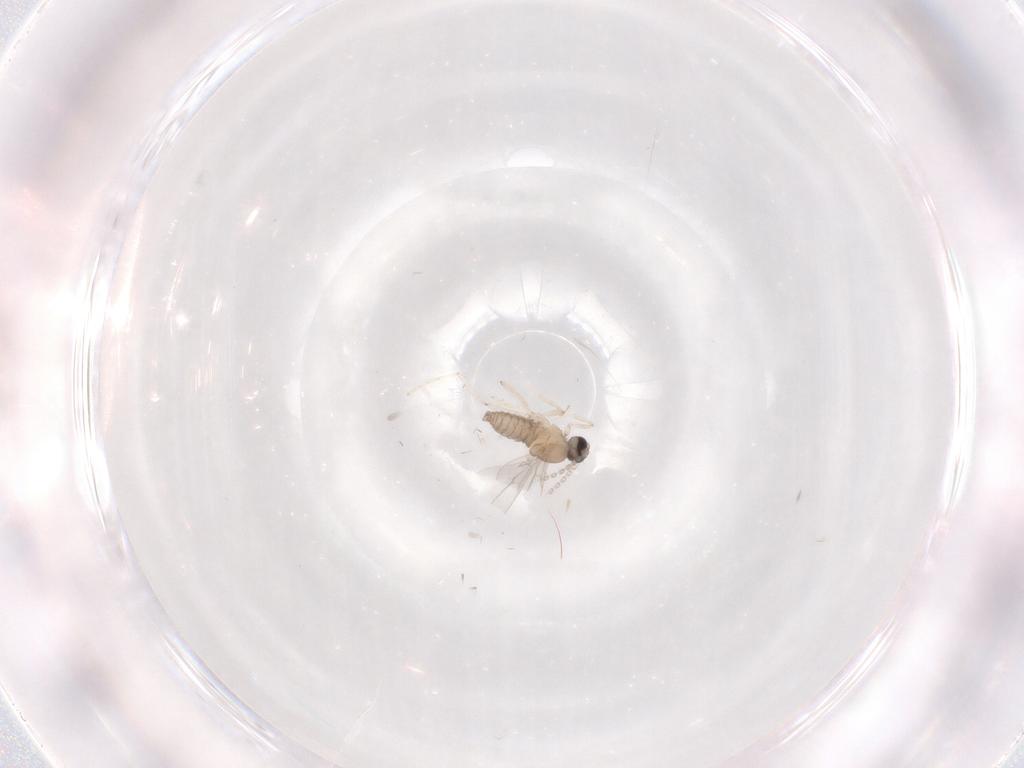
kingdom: Animalia
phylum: Arthropoda
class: Insecta
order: Diptera
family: Cecidomyiidae
